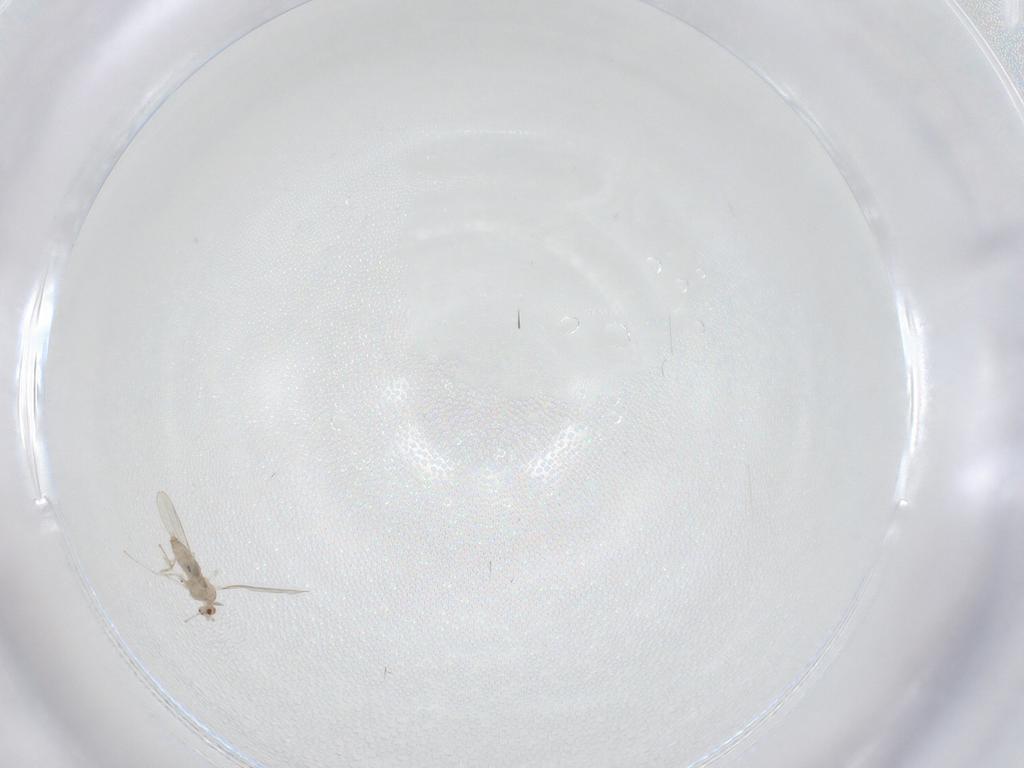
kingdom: Animalia
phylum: Arthropoda
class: Insecta
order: Diptera
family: Cecidomyiidae
